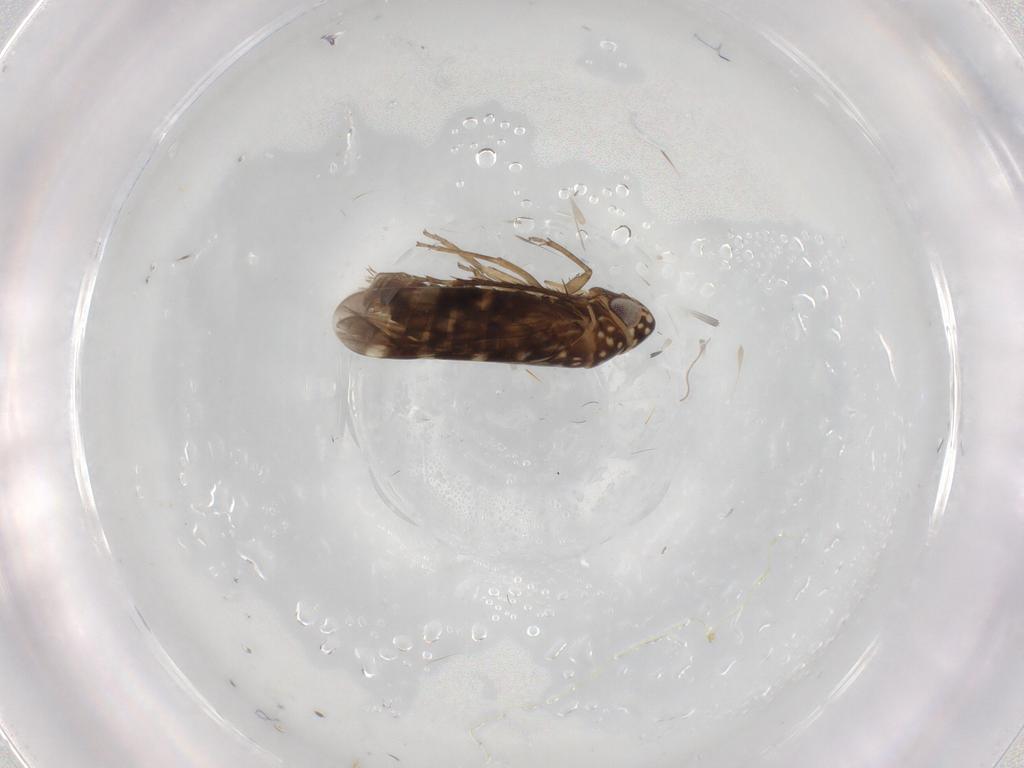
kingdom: Animalia
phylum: Arthropoda
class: Insecta
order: Hemiptera
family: Cicadellidae
